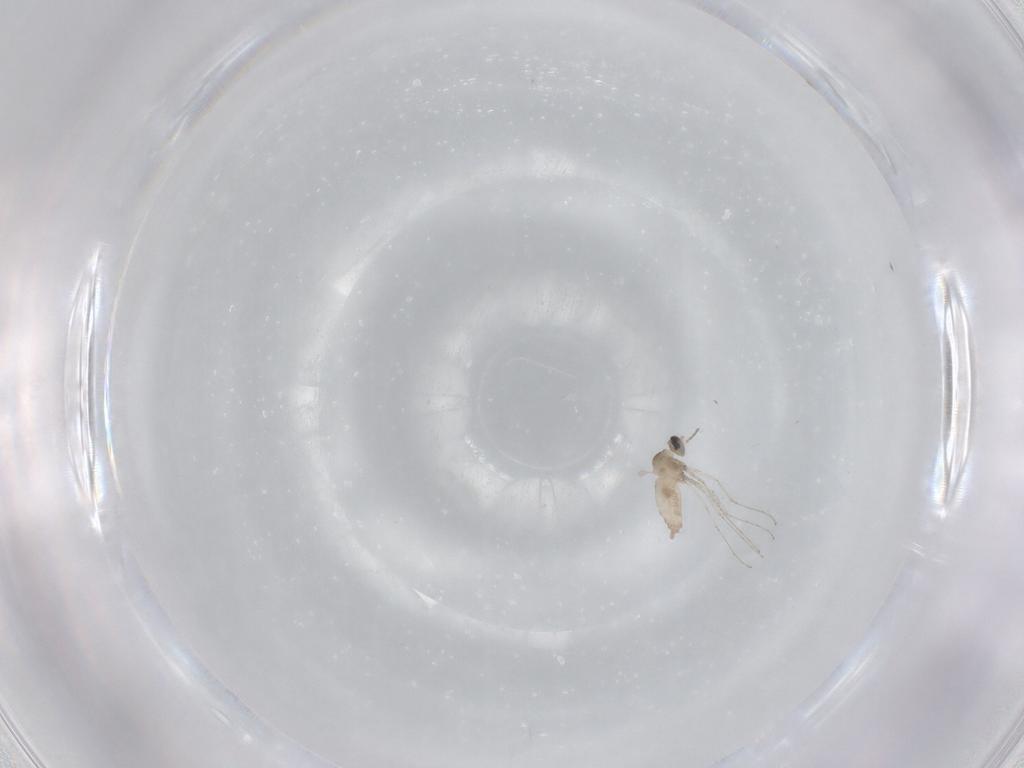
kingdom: Animalia
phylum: Arthropoda
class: Insecta
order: Diptera
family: Cecidomyiidae
